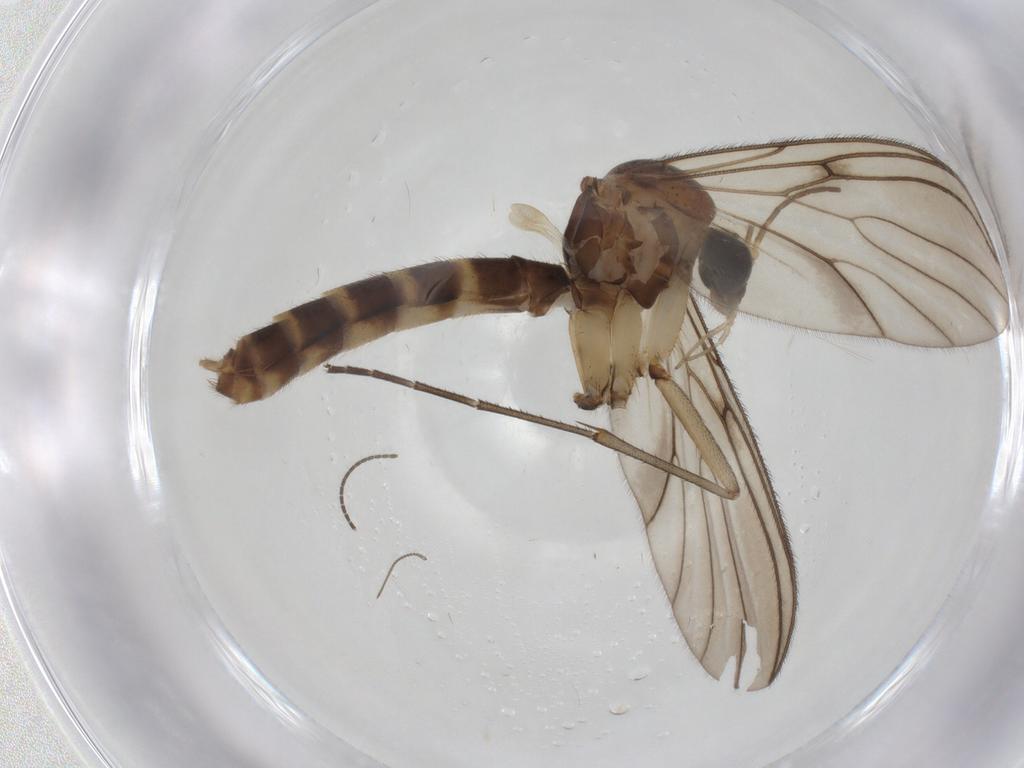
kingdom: Animalia
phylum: Arthropoda
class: Insecta
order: Diptera
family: Mycetophilidae
